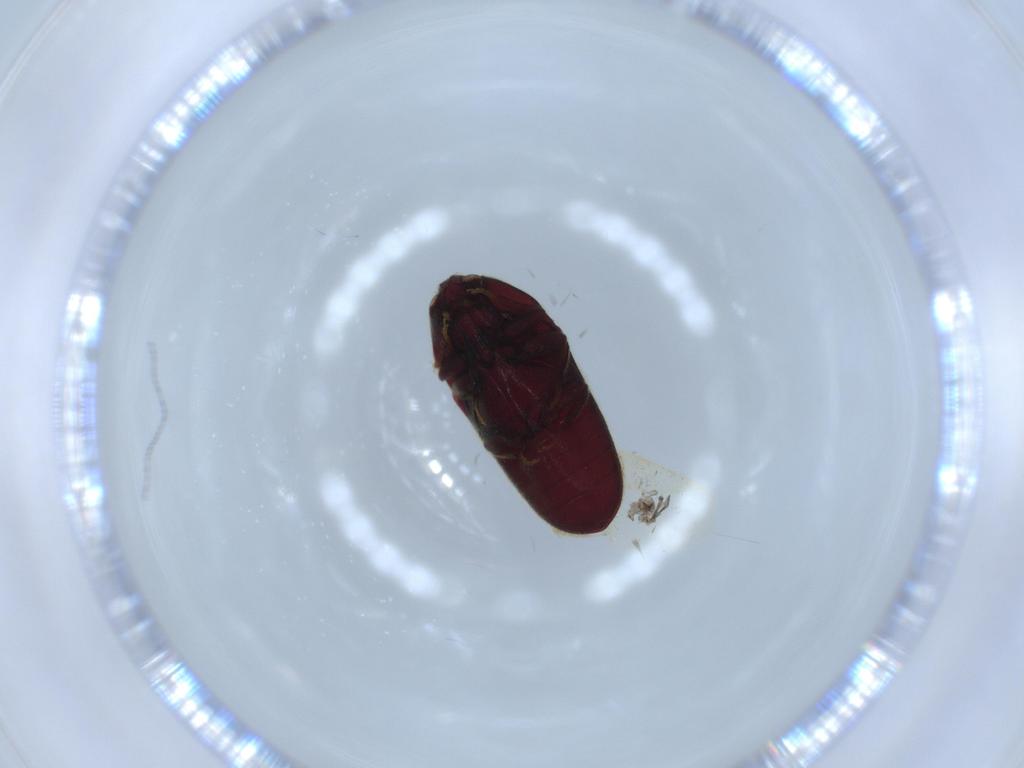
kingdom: Animalia
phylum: Arthropoda
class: Insecta
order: Coleoptera
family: Throscidae
